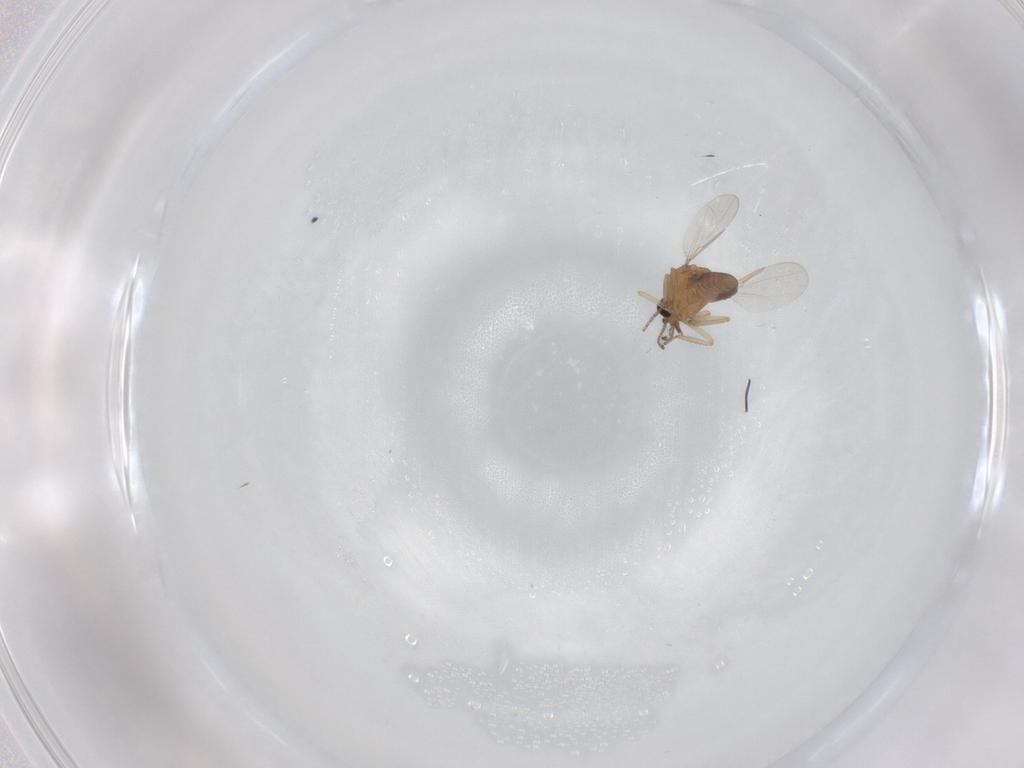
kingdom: Animalia
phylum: Arthropoda
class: Insecta
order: Diptera
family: Ceratopogonidae
